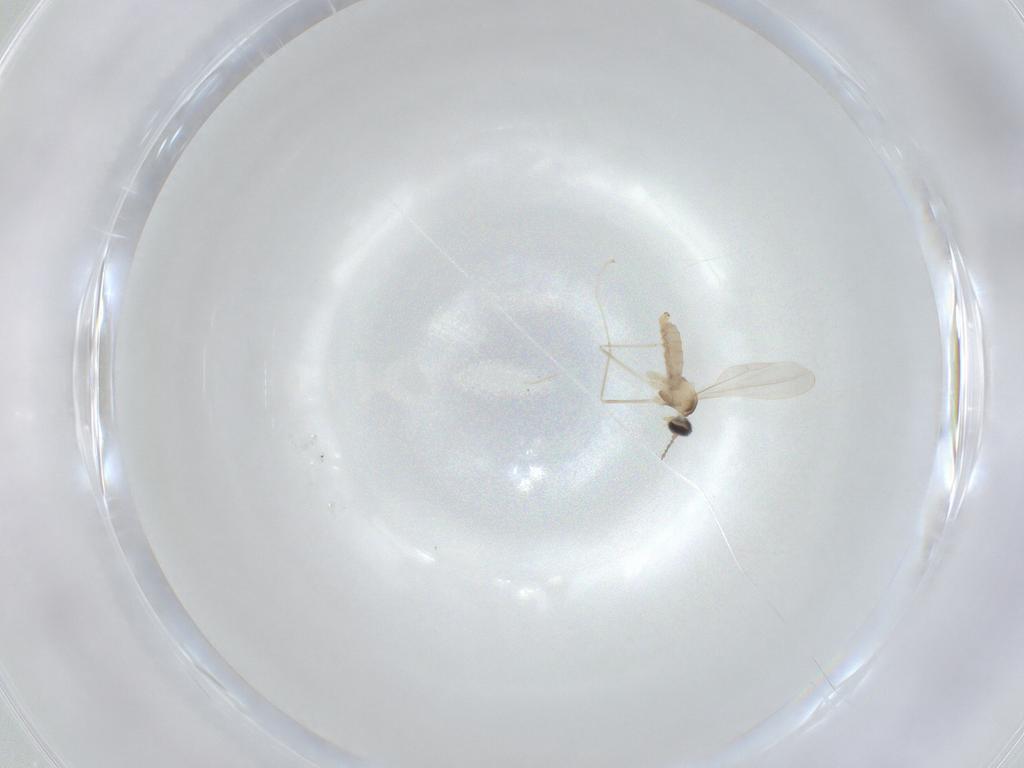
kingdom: Animalia
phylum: Arthropoda
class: Insecta
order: Diptera
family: Cecidomyiidae
